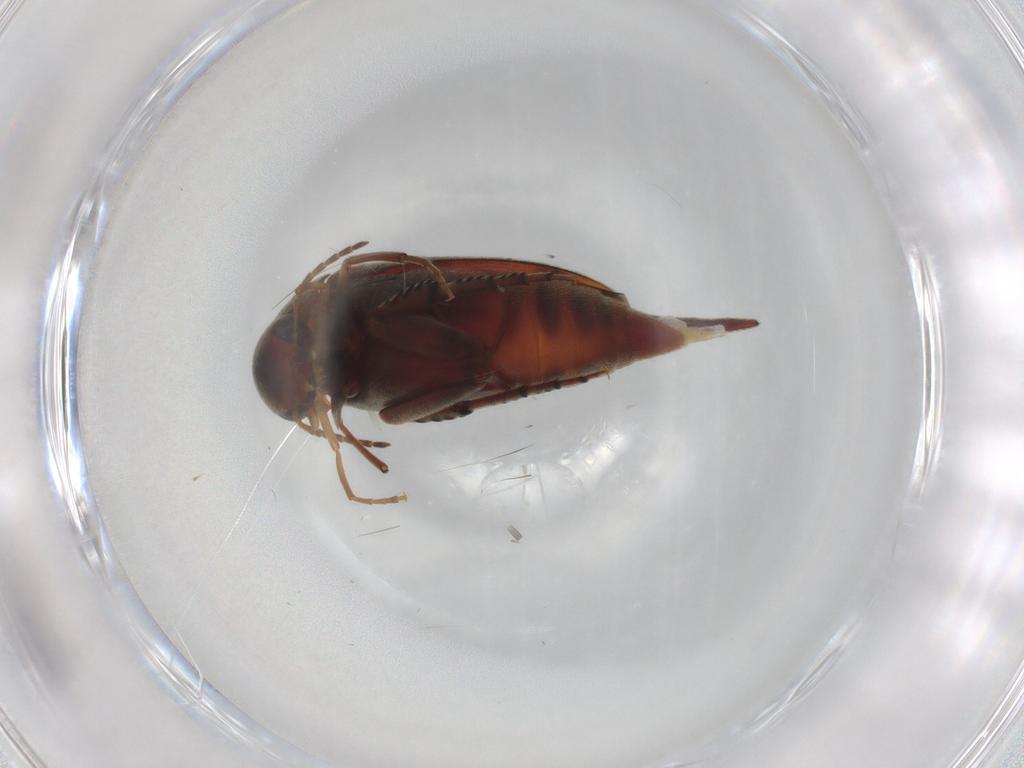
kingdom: Animalia
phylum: Arthropoda
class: Insecta
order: Coleoptera
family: Mordellidae
